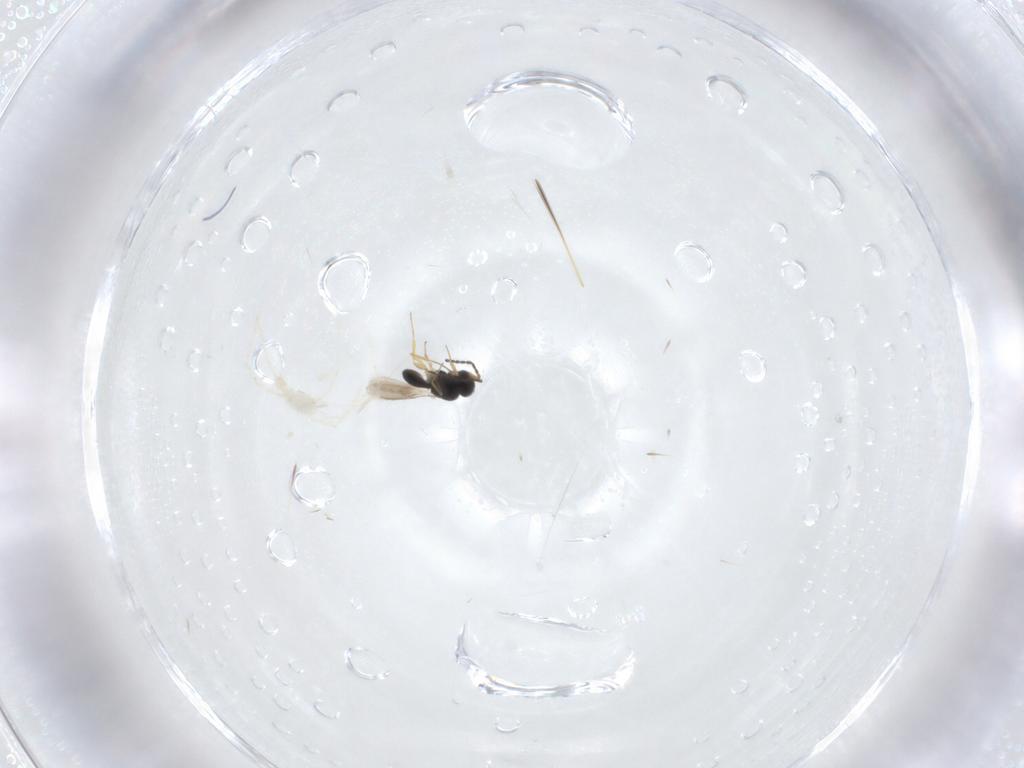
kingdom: Animalia
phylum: Arthropoda
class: Insecta
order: Hymenoptera
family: Scelionidae
